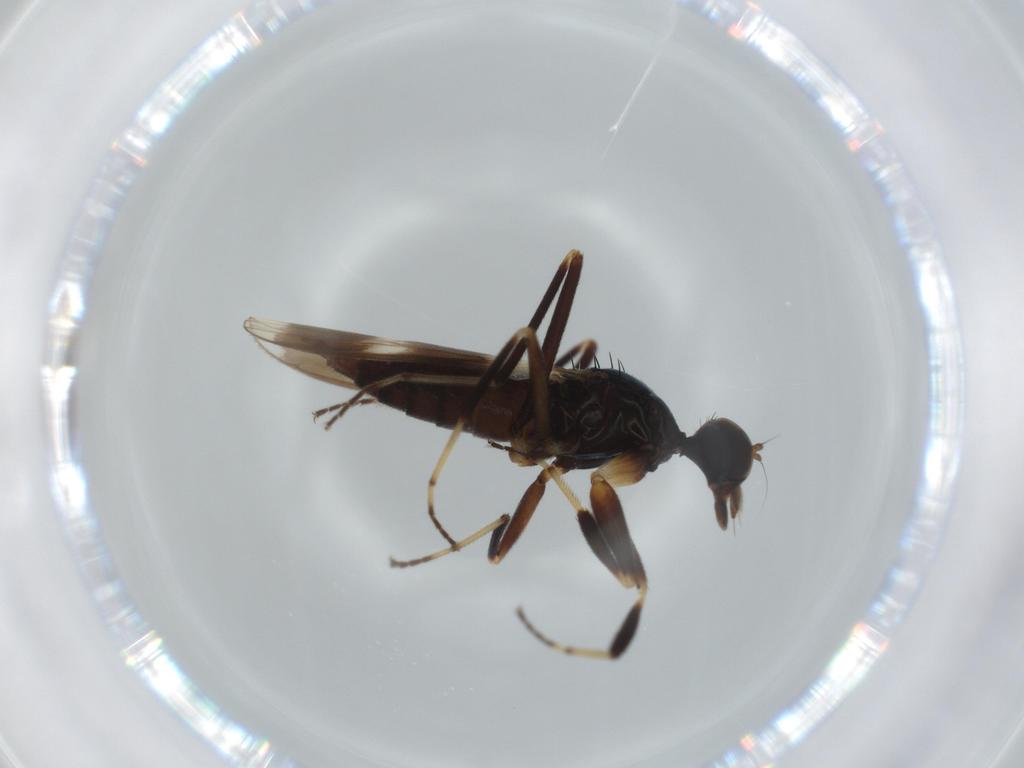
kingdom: Animalia
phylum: Arthropoda
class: Insecta
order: Diptera
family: Hybotidae
